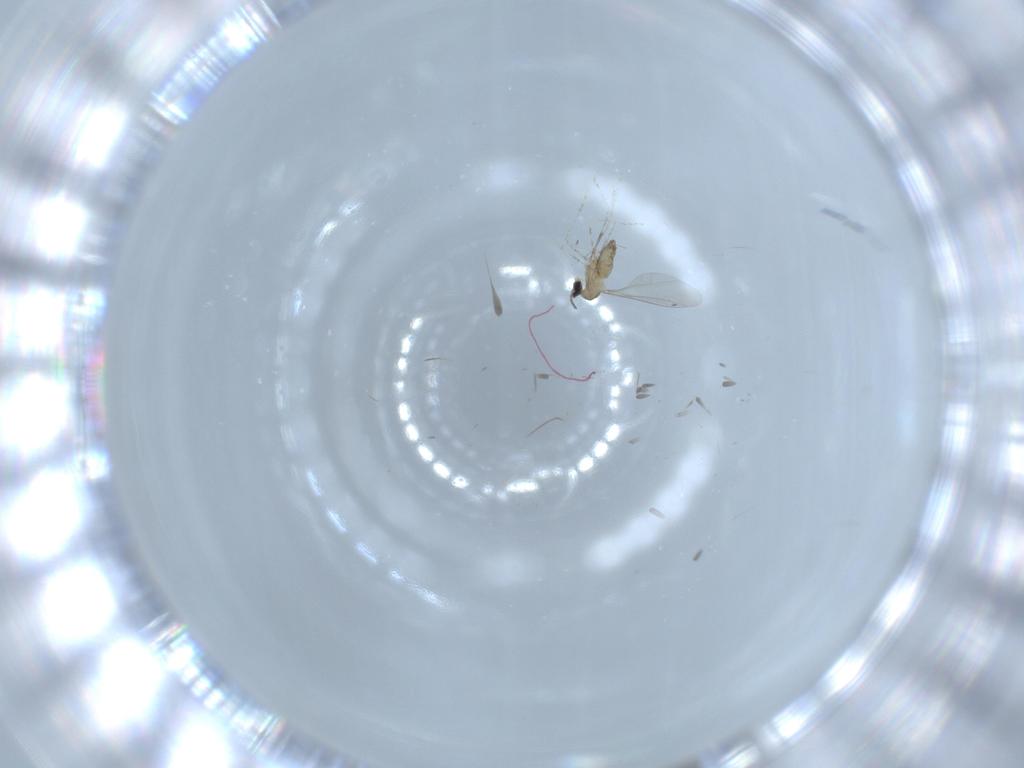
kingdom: Animalia
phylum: Arthropoda
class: Insecta
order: Diptera
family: Cecidomyiidae
